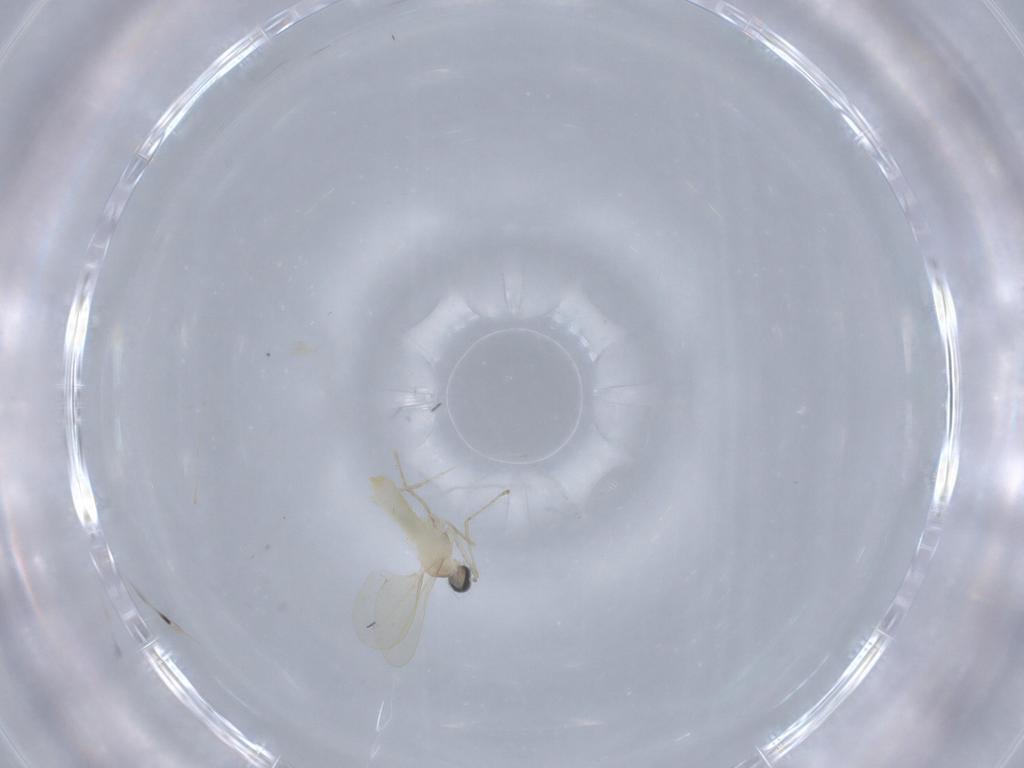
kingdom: Animalia
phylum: Arthropoda
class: Insecta
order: Diptera
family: Cecidomyiidae
